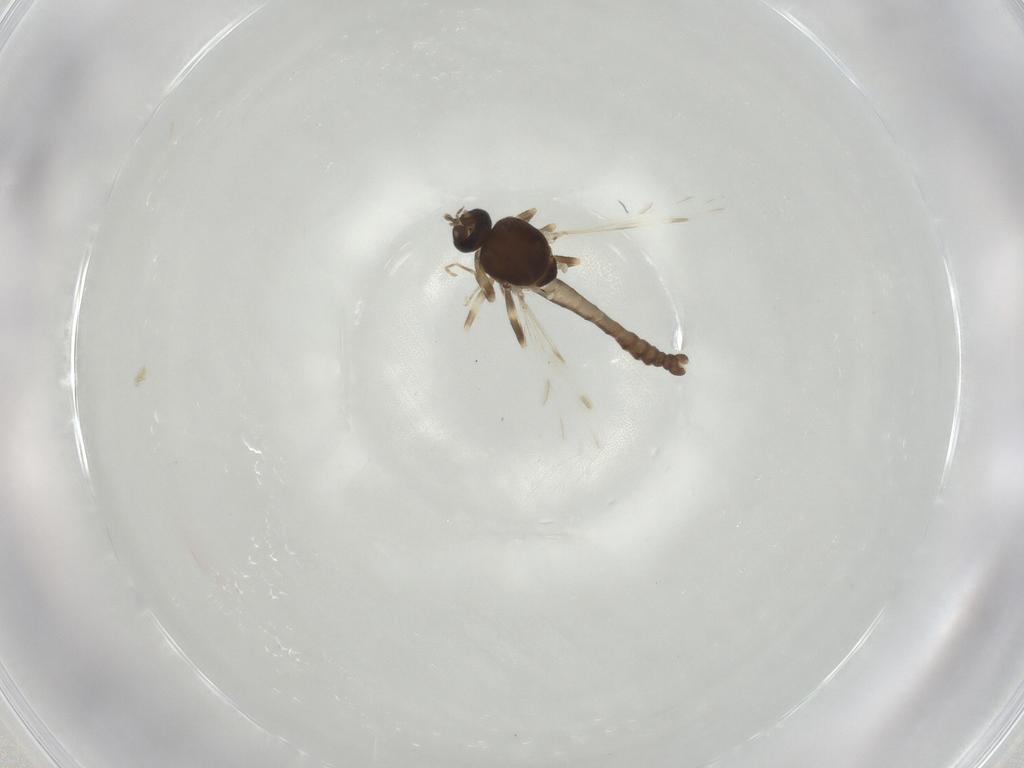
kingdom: Animalia
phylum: Arthropoda
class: Insecta
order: Diptera
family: Ceratopogonidae
